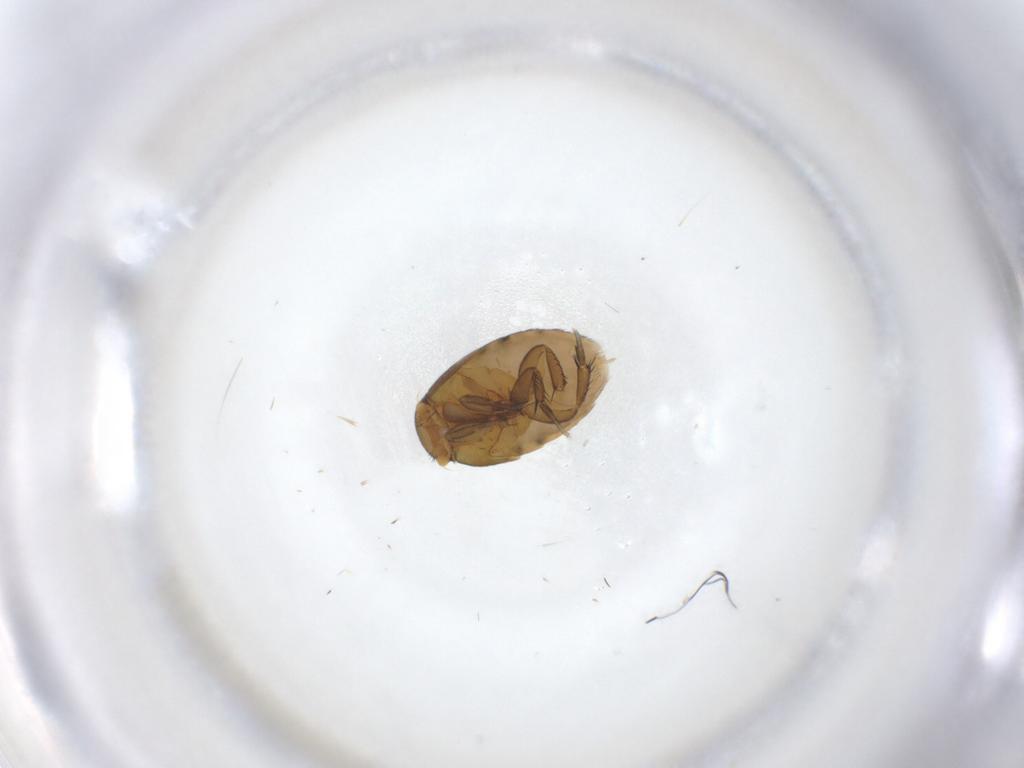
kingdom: Animalia
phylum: Arthropoda
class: Insecta
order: Diptera
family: Phoridae
